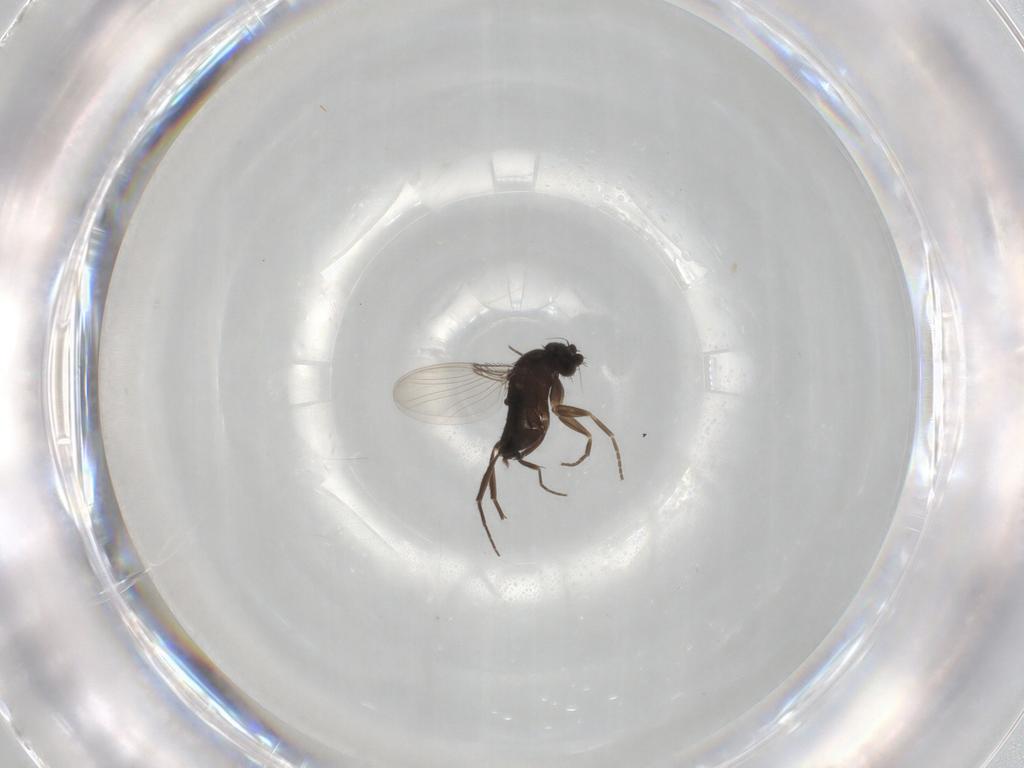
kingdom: Animalia
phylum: Arthropoda
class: Insecta
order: Diptera
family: Phoridae
